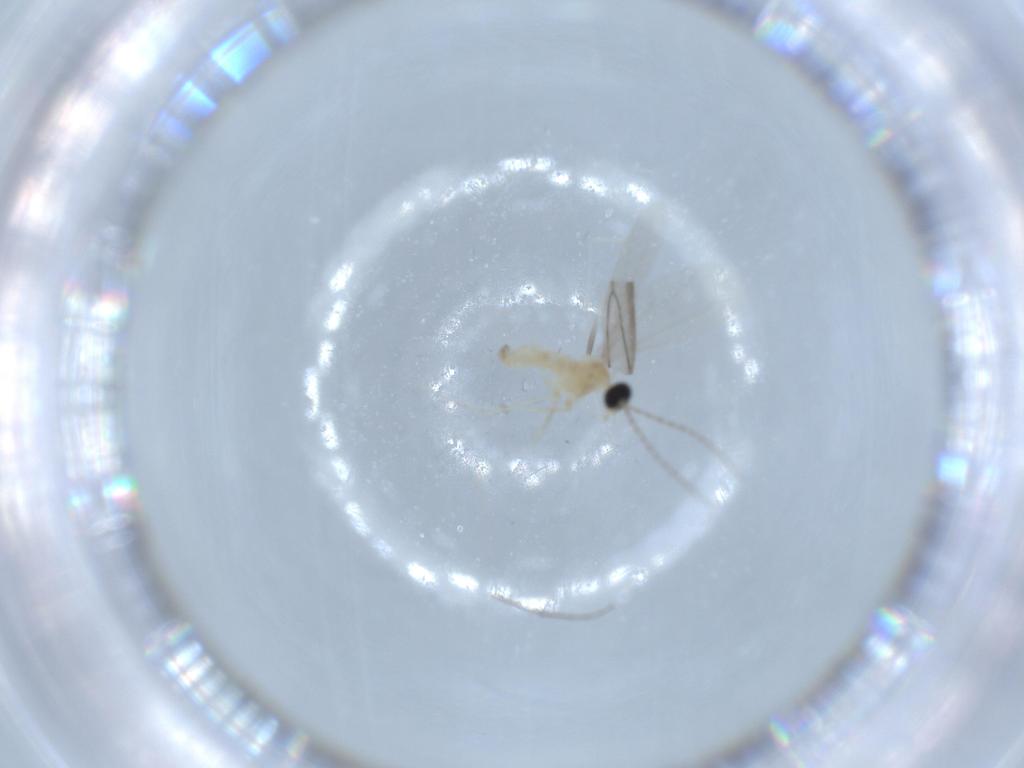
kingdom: Animalia
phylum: Arthropoda
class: Insecta
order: Diptera
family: Cecidomyiidae
